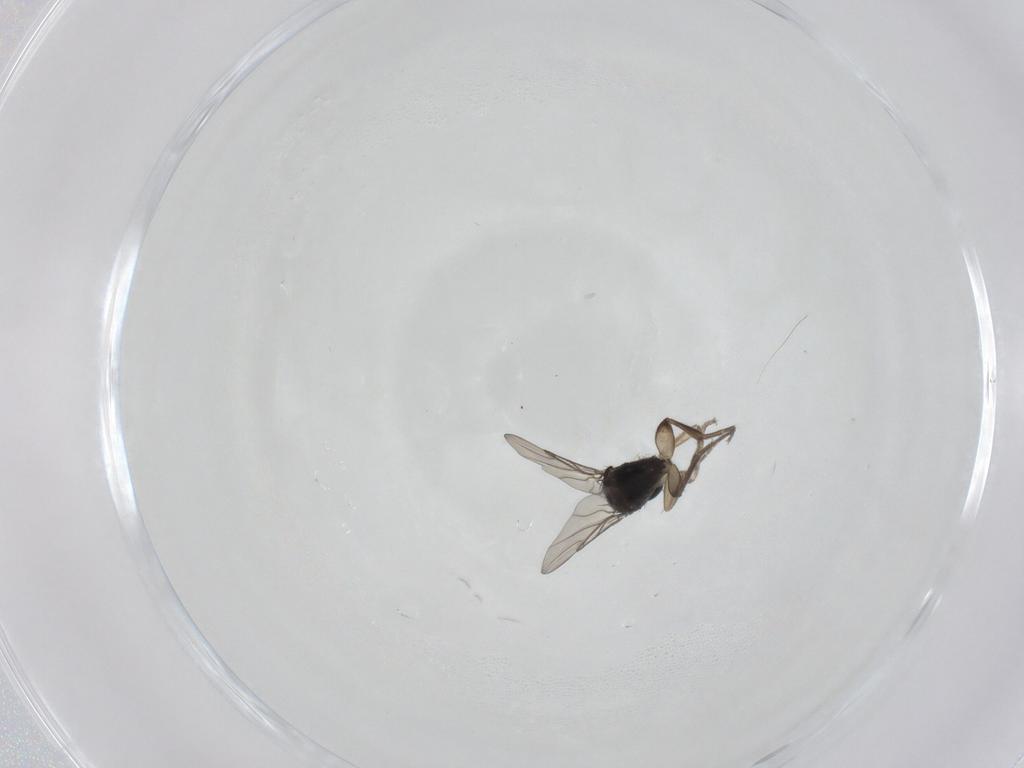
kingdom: Animalia
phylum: Arthropoda
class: Insecta
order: Diptera
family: Phoridae
